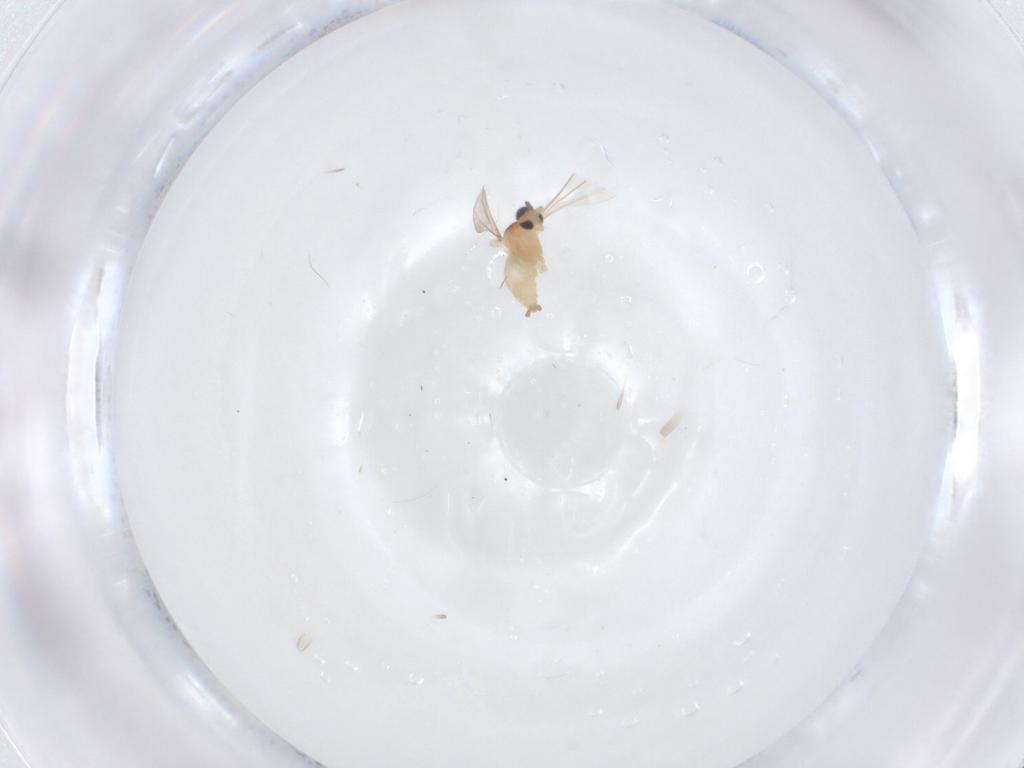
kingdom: Animalia
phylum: Arthropoda
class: Insecta
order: Diptera
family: Cecidomyiidae
